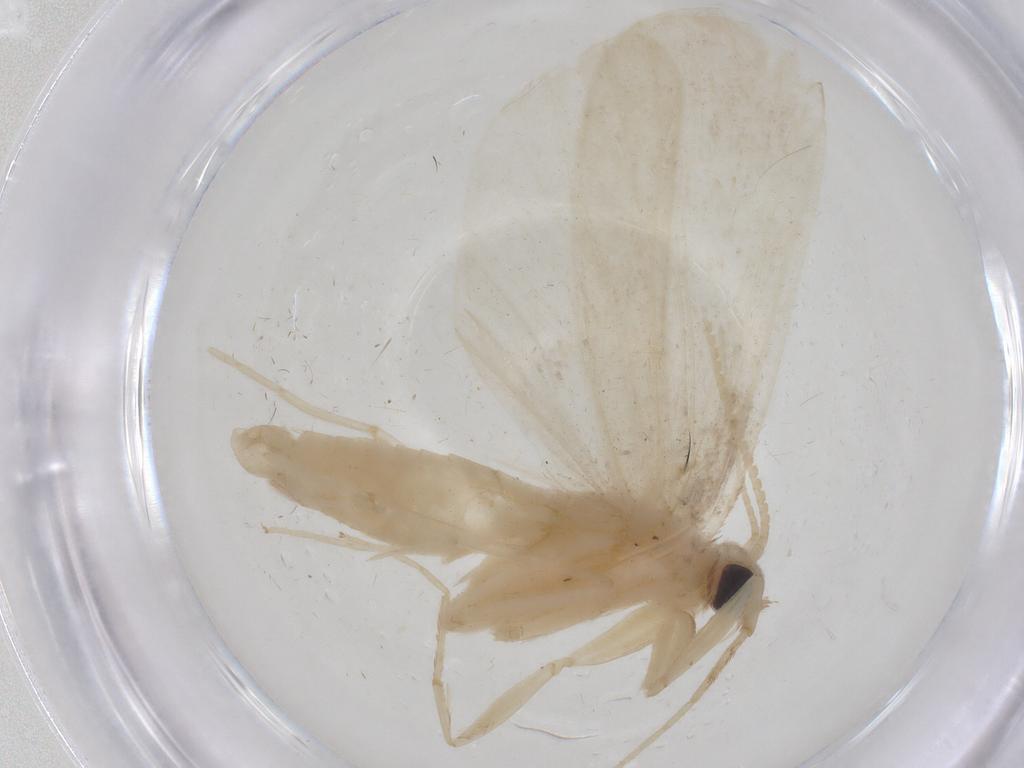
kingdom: Animalia
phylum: Arthropoda
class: Insecta
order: Lepidoptera
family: Crambidae
